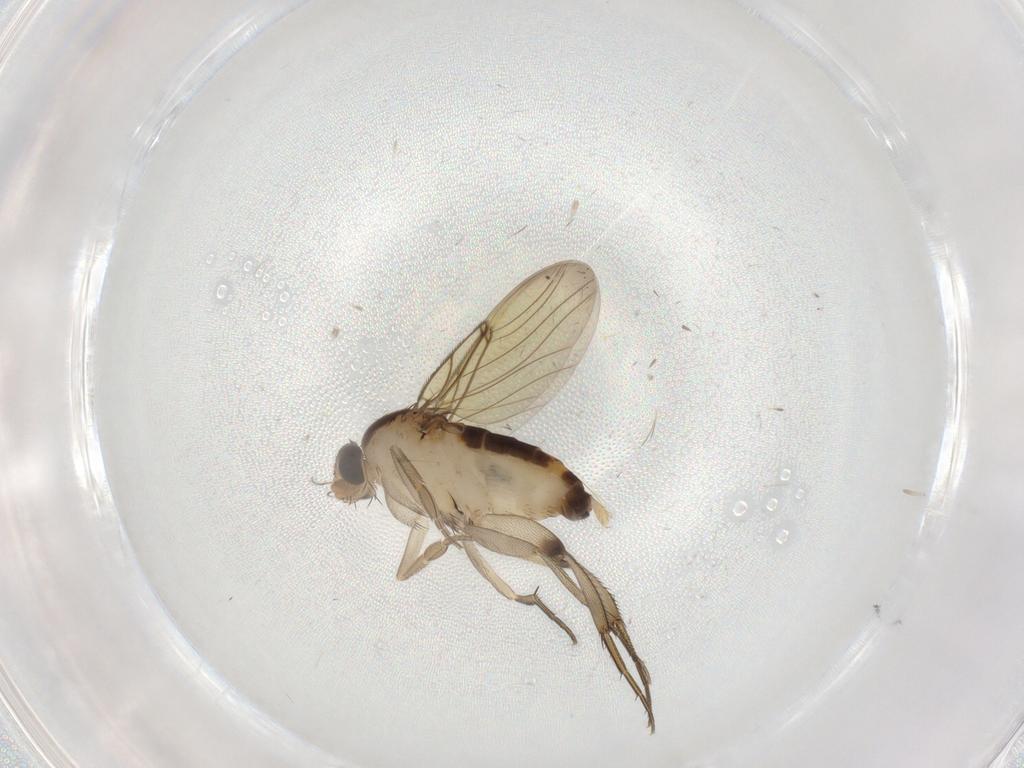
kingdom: Animalia
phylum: Arthropoda
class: Insecta
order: Diptera
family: Phoridae
